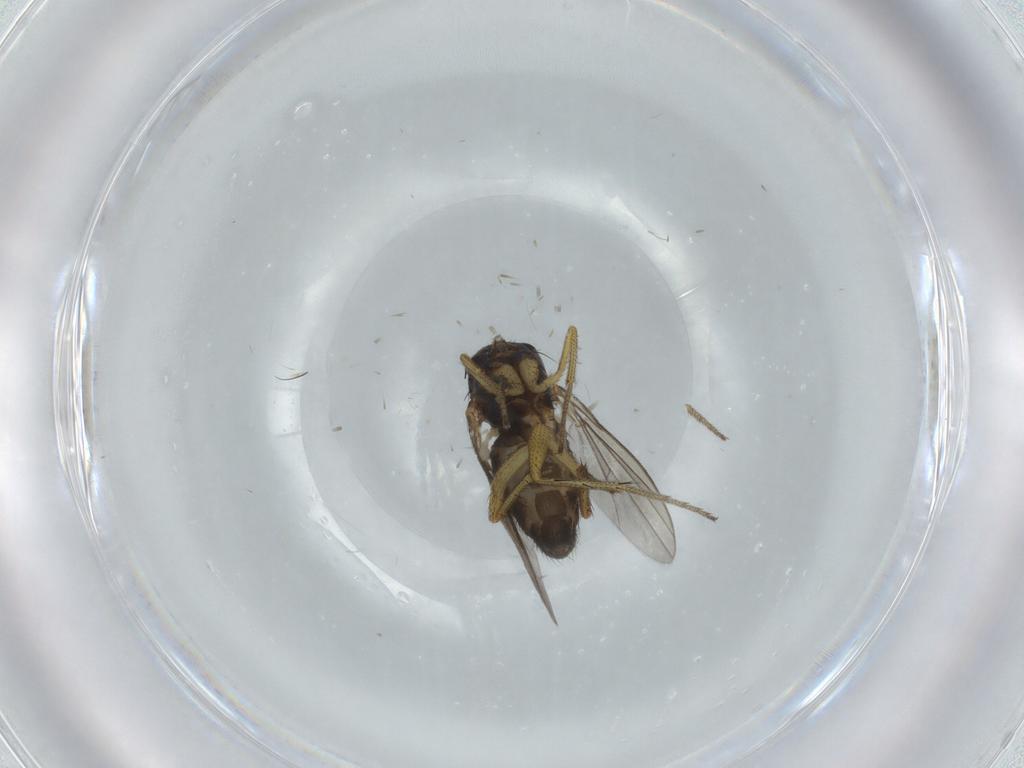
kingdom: Animalia
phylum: Arthropoda
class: Insecta
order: Diptera
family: Dolichopodidae
